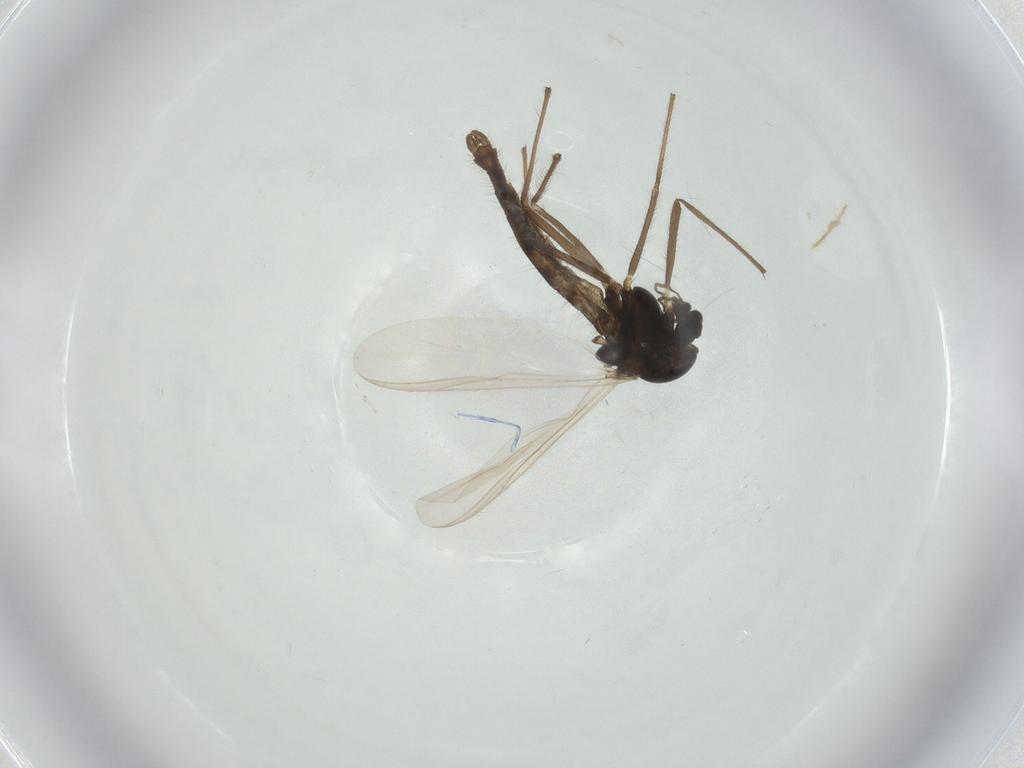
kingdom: Animalia
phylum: Arthropoda
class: Insecta
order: Diptera
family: Chironomidae
